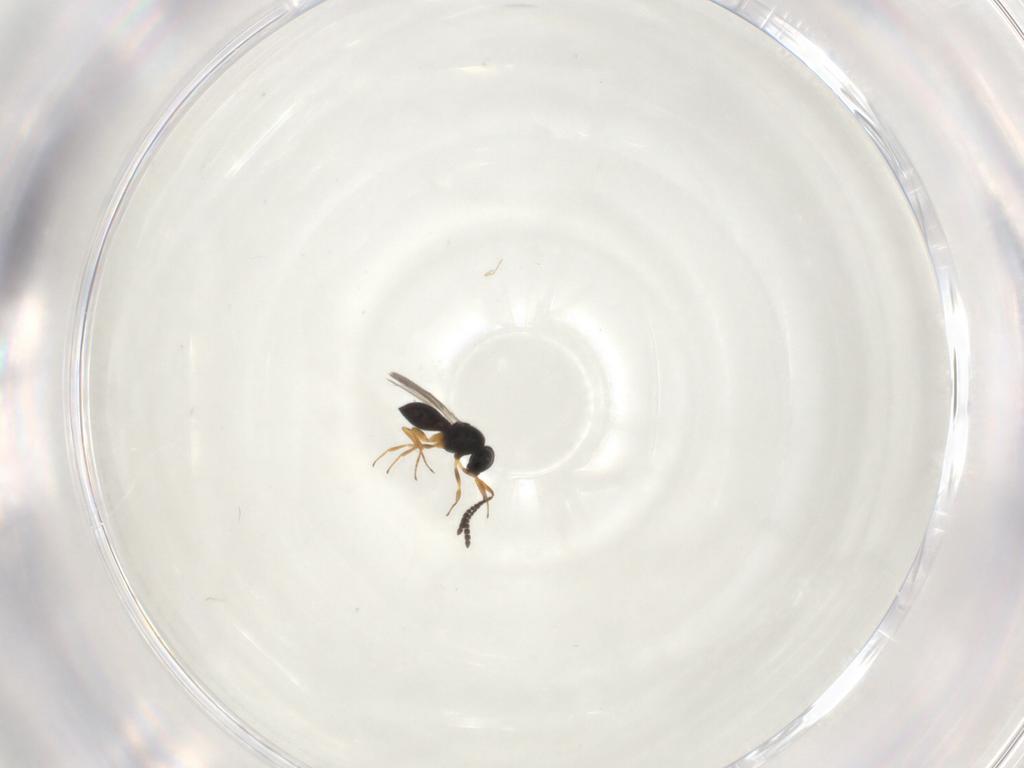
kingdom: Animalia
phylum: Arthropoda
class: Insecta
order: Hymenoptera
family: Scelionidae
